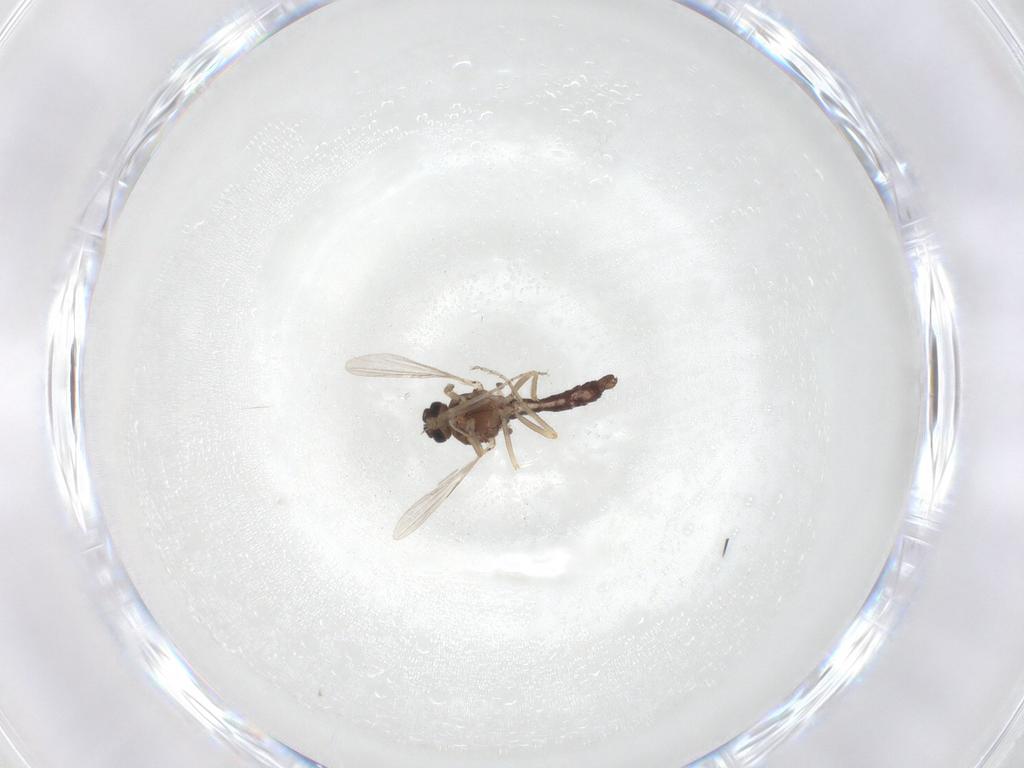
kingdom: Animalia
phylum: Arthropoda
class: Insecta
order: Diptera
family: Ceratopogonidae
